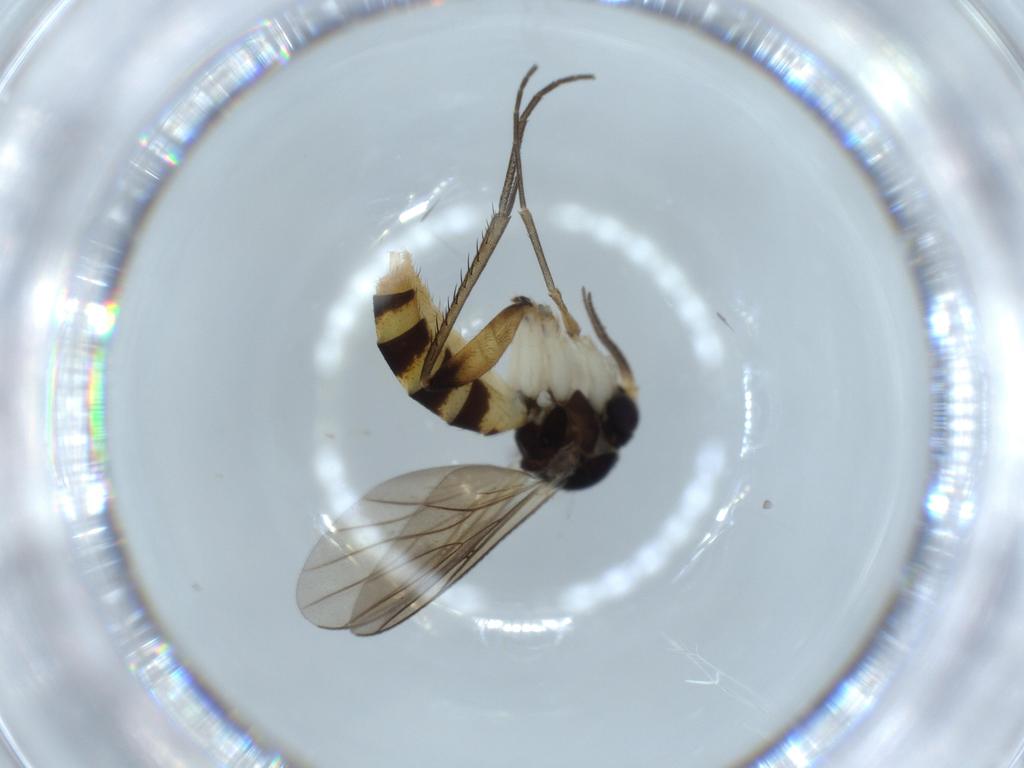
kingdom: Animalia
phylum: Arthropoda
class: Insecta
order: Diptera
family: Mycetophilidae
